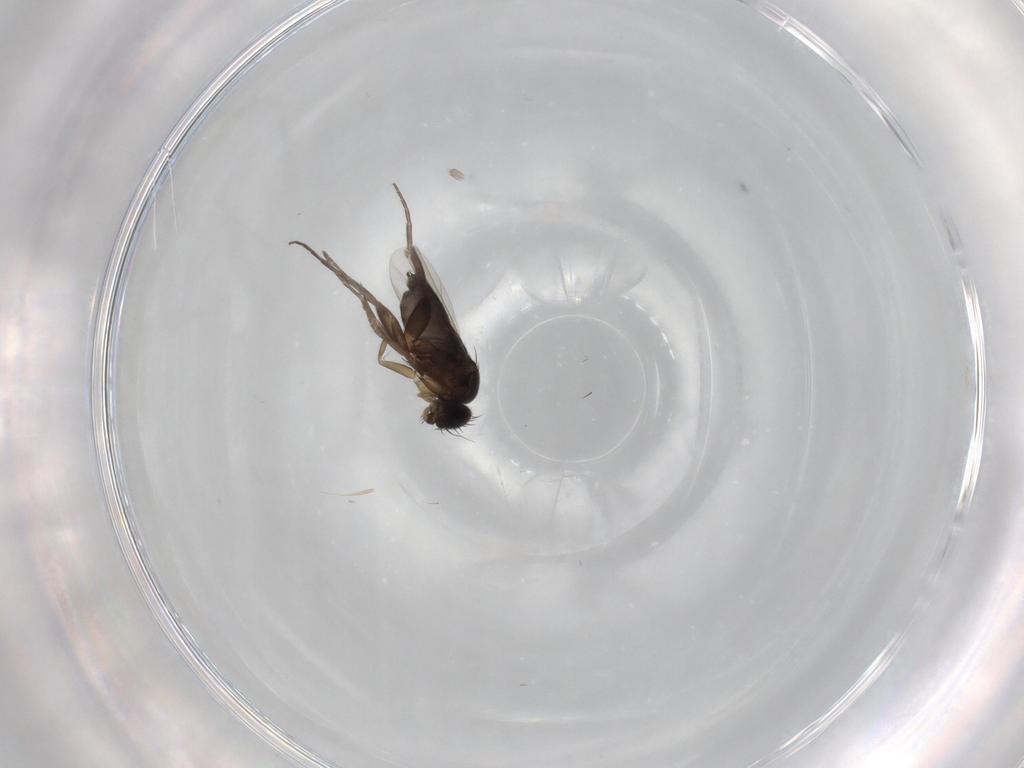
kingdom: Animalia
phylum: Arthropoda
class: Insecta
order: Diptera
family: Phoridae
